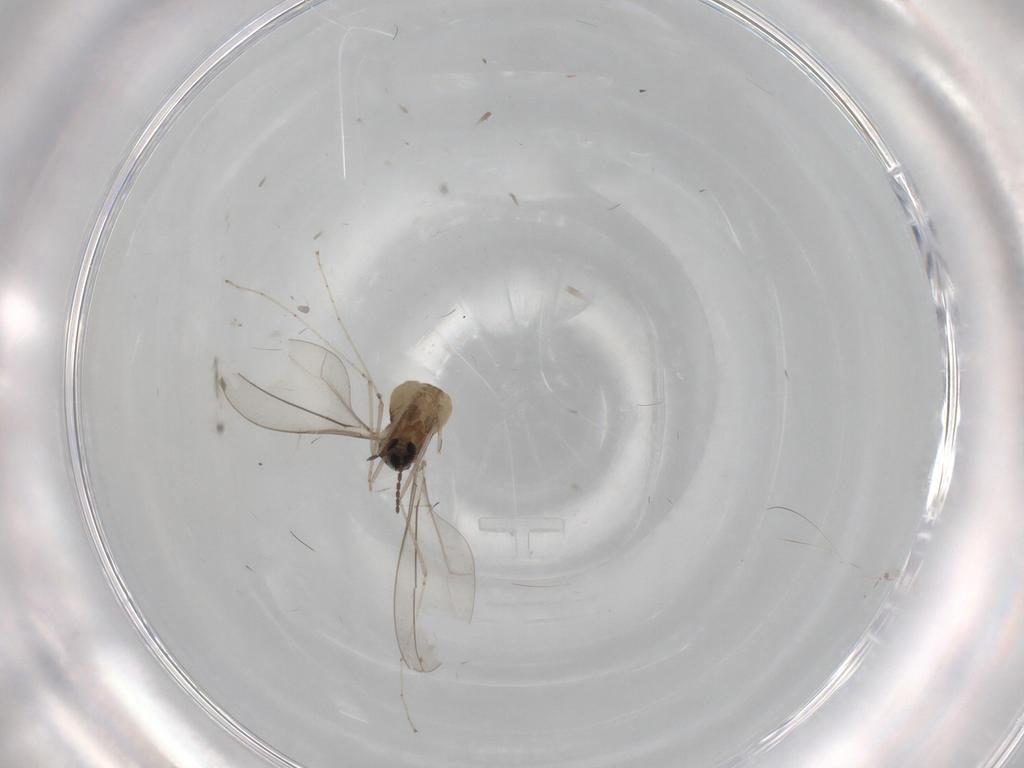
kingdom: Animalia
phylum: Arthropoda
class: Insecta
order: Diptera
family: Cecidomyiidae
